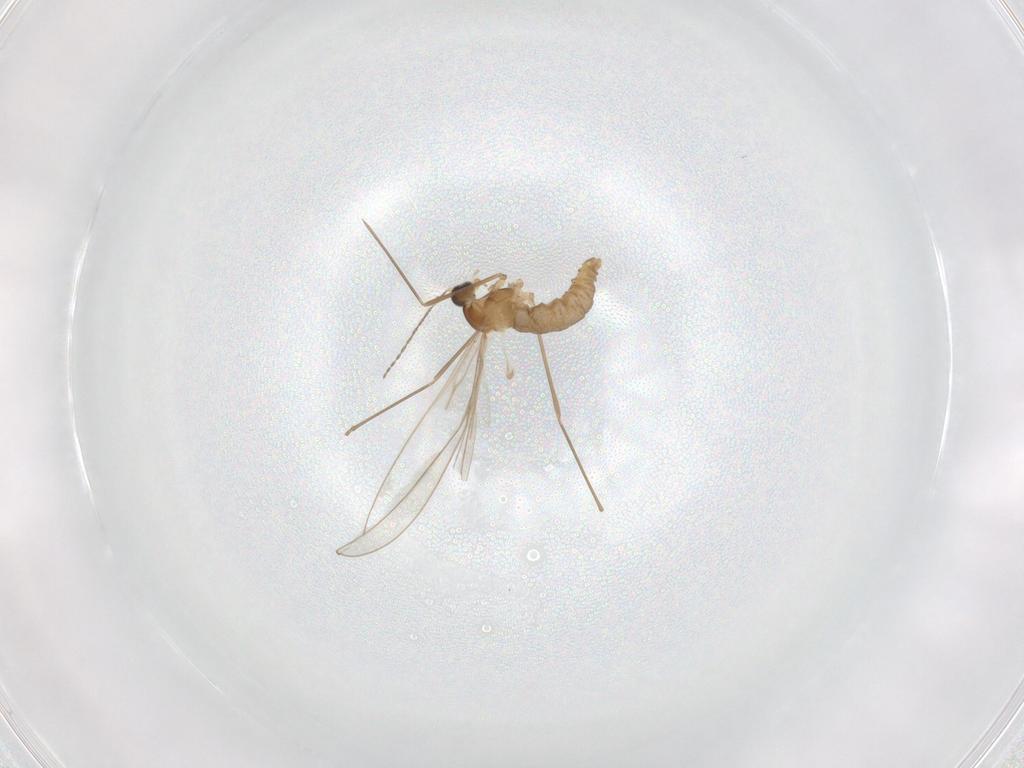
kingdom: Animalia
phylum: Arthropoda
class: Insecta
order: Diptera
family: Cecidomyiidae
